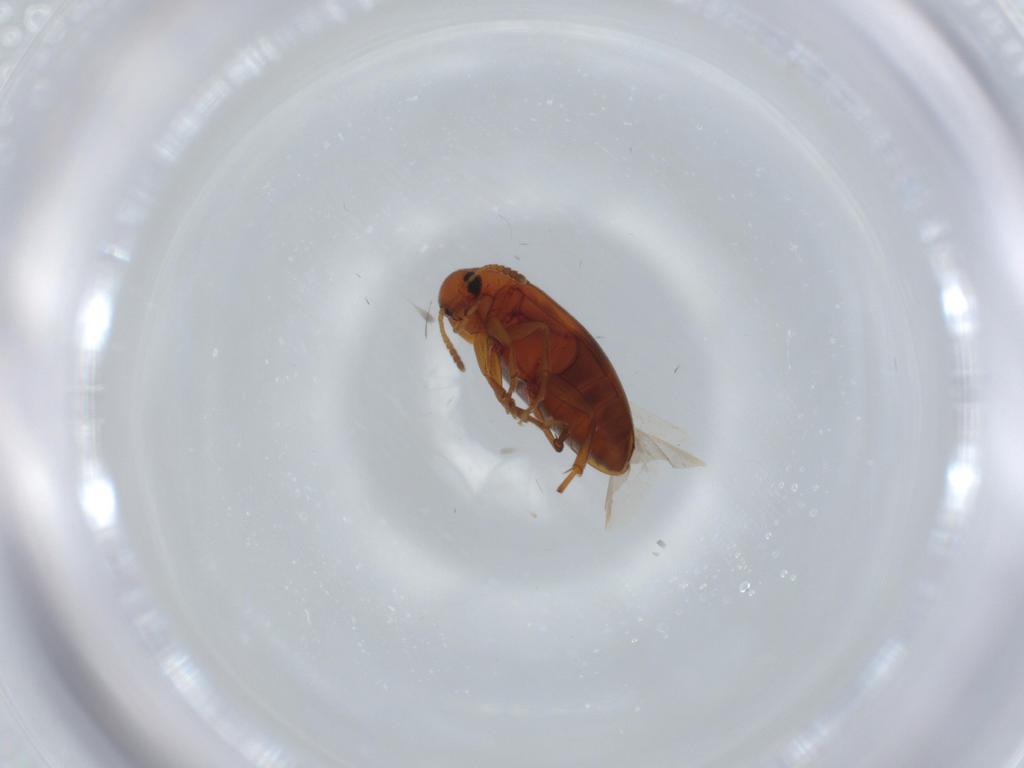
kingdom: Animalia
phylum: Arthropoda
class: Insecta
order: Coleoptera
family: Scraptiidae
